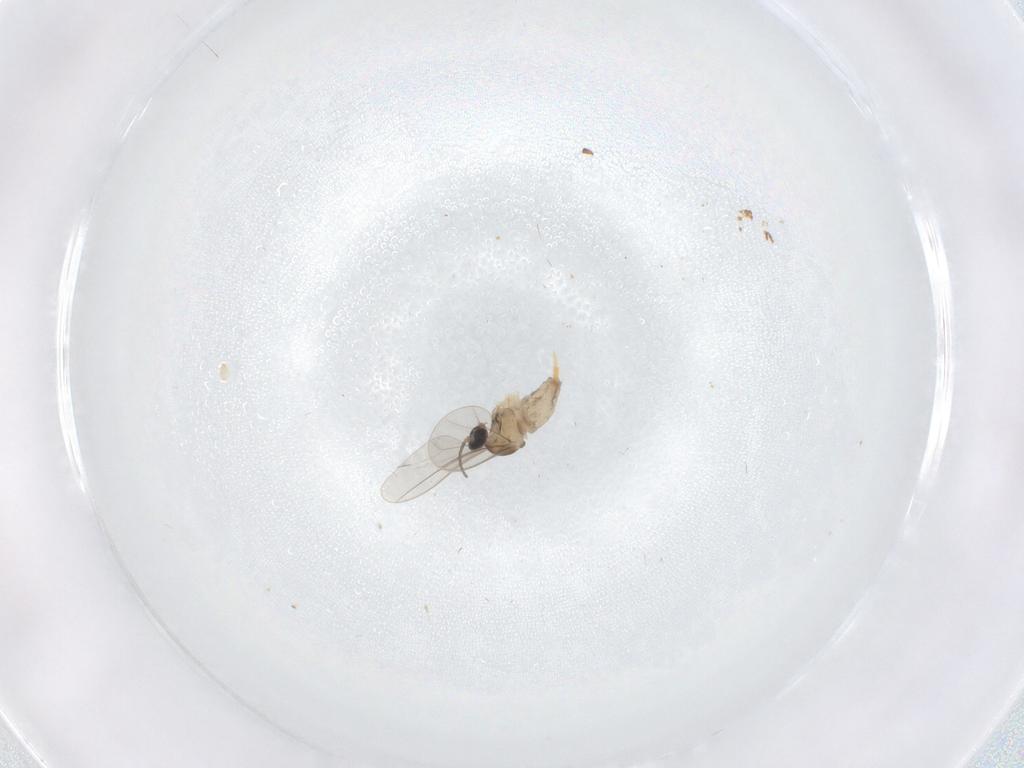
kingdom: Animalia
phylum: Arthropoda
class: Insecta
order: Diptera
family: Cecidomyiidae
